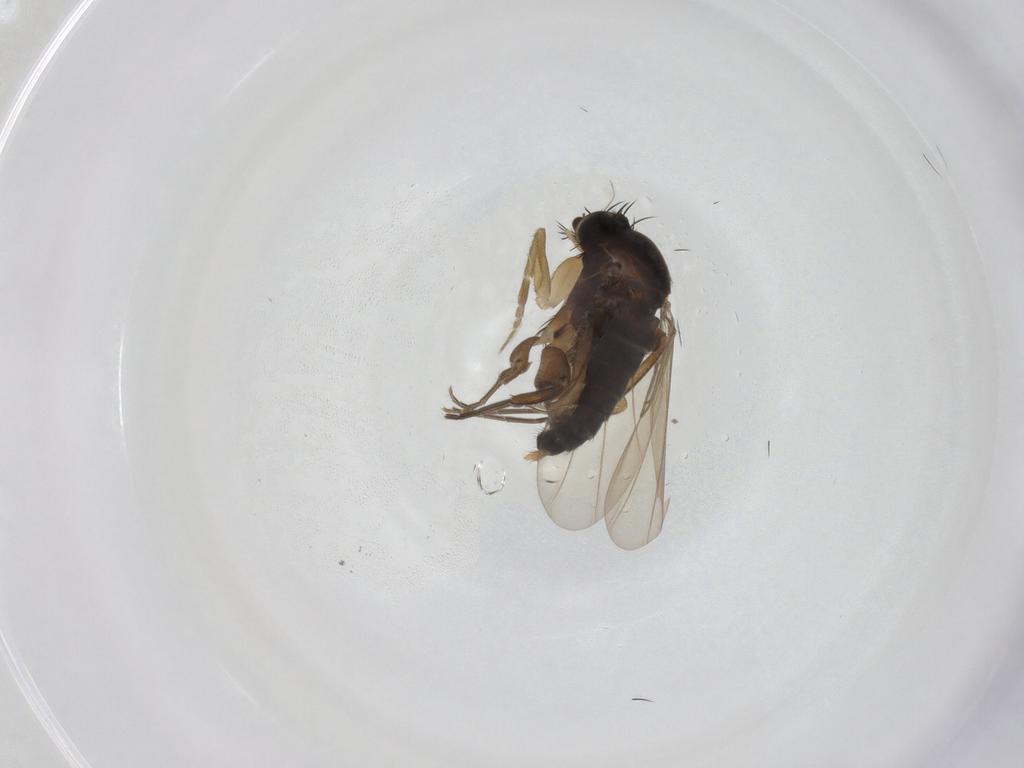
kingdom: Animalia
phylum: Arthropoda
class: Insecta
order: Diptera
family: Phoridae
